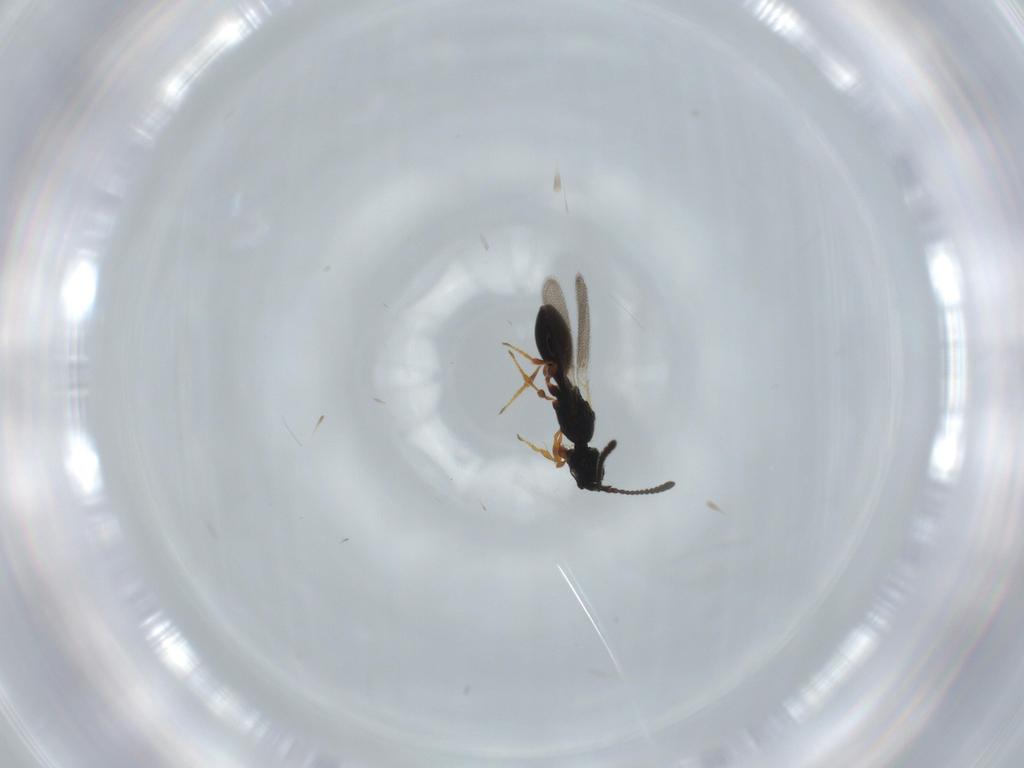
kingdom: Animalia
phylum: Arthropoda
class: Insecta
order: Hymenoptera
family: Diapriidae
